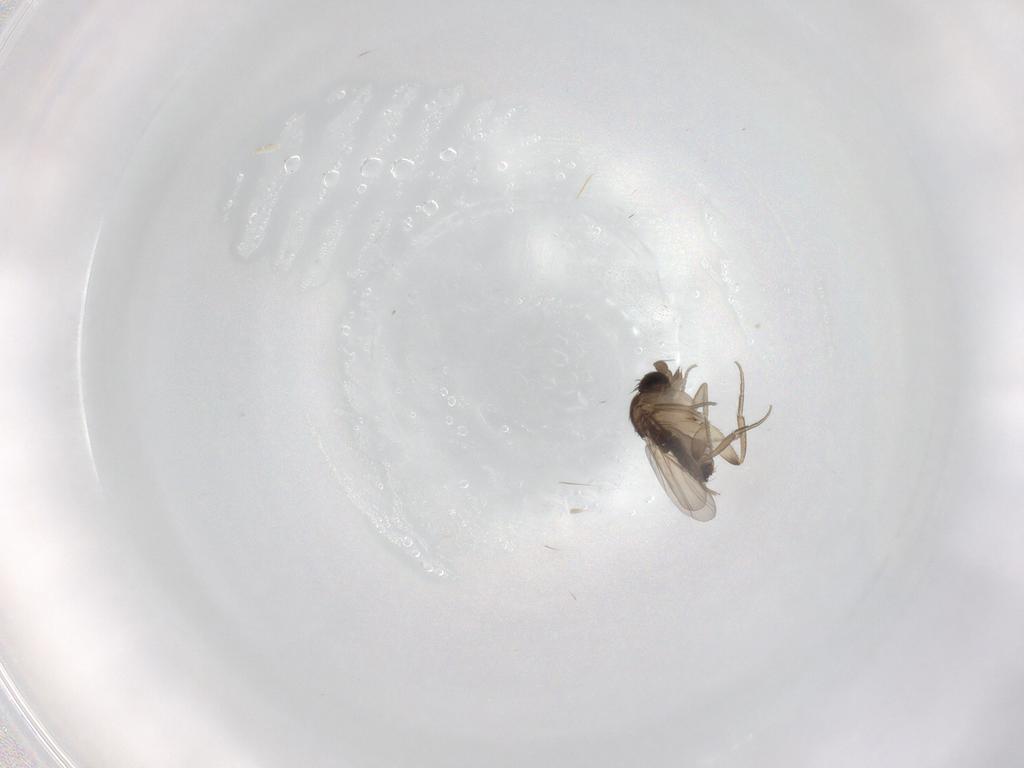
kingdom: Animalia
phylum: Arthropoda
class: Insecta
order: Diptera
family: Phoridae
